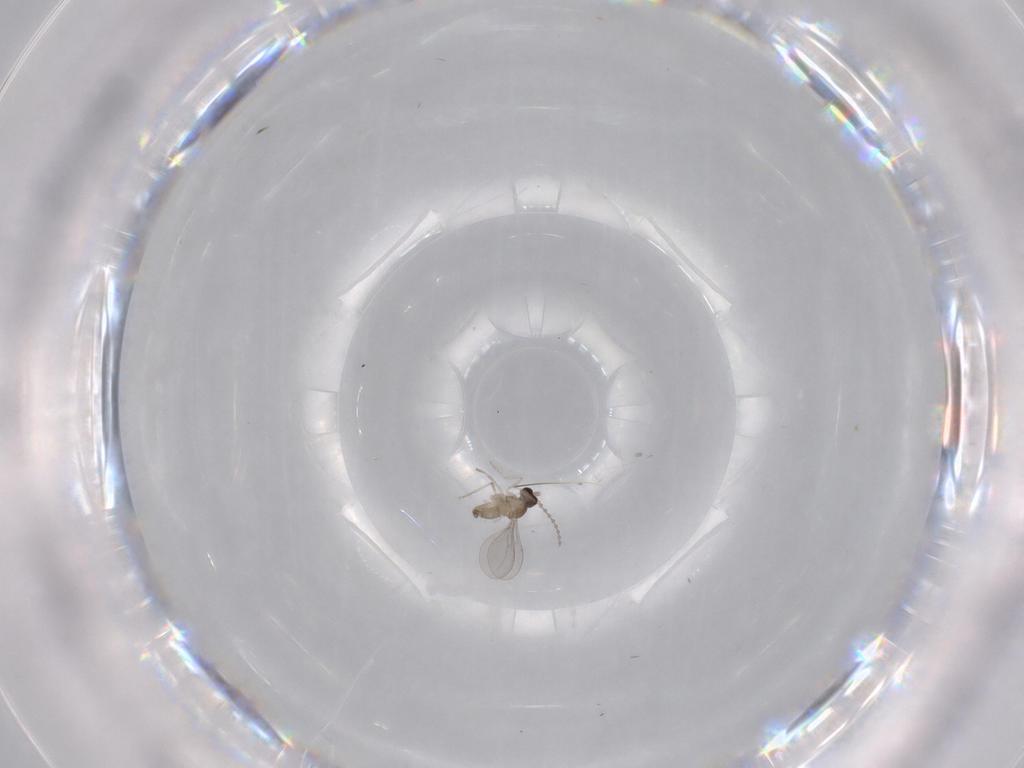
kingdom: Animalia
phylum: Arthropoda
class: Insecta
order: Diptera
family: Cecidomyiidae
